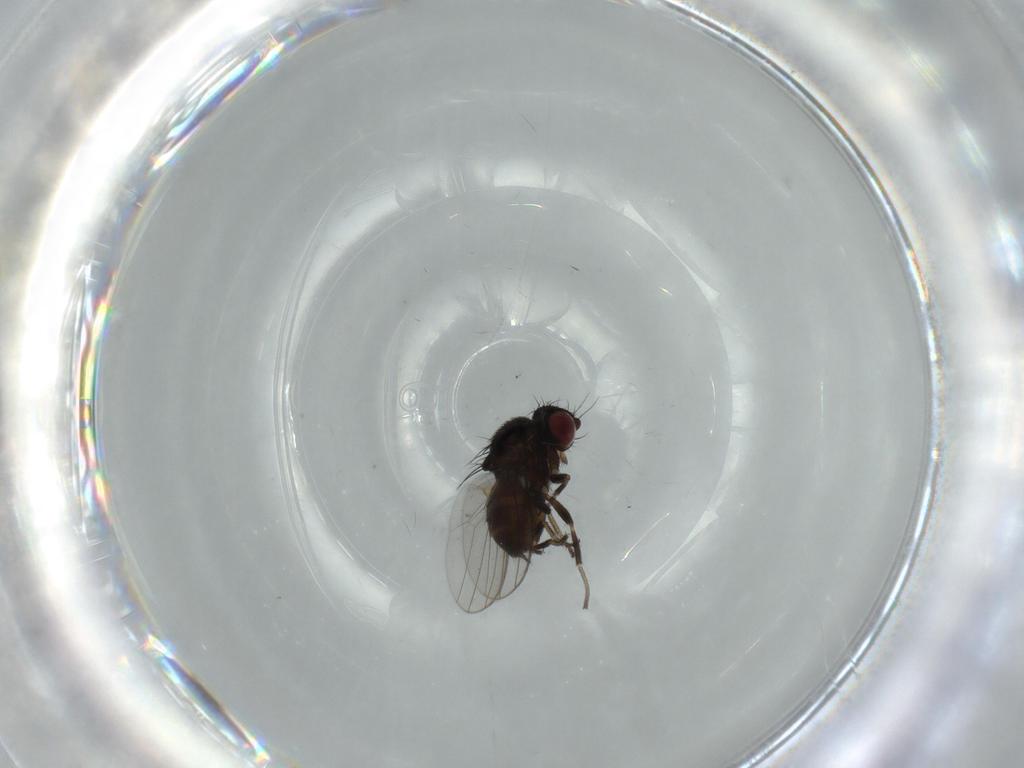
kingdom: Animalia
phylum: Arthropoda
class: Insecta
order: Diptera
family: Milichiidae
